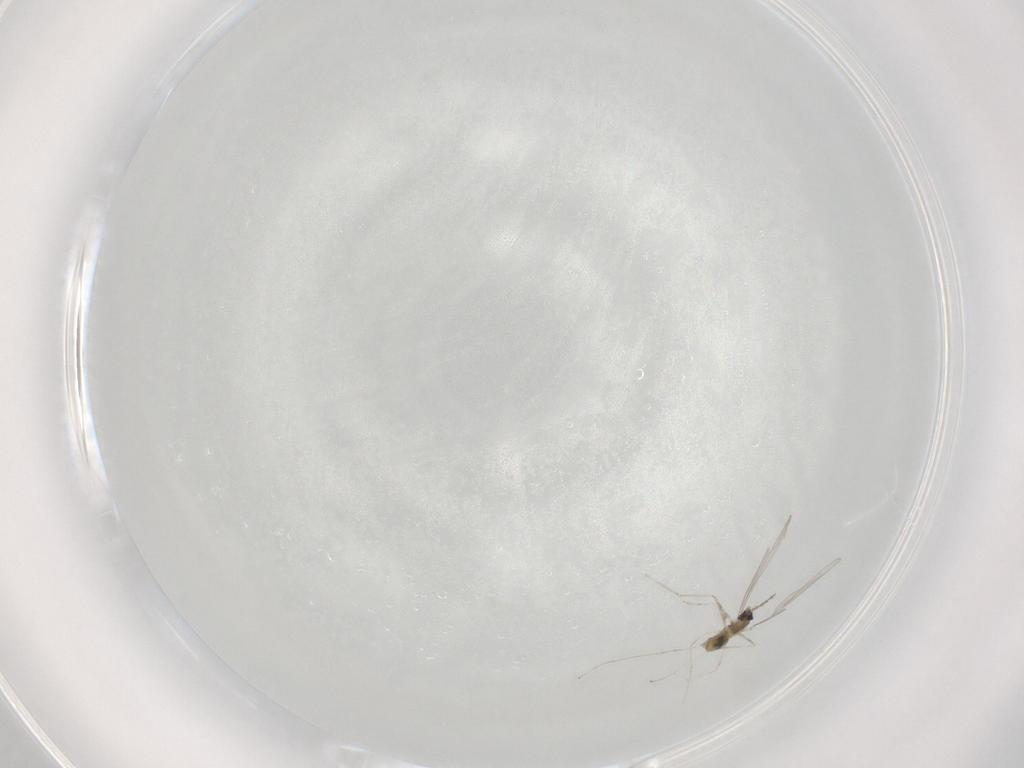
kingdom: Animalia
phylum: Arthropoda
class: Insecta
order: Diptera
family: Cecidomyiidae
